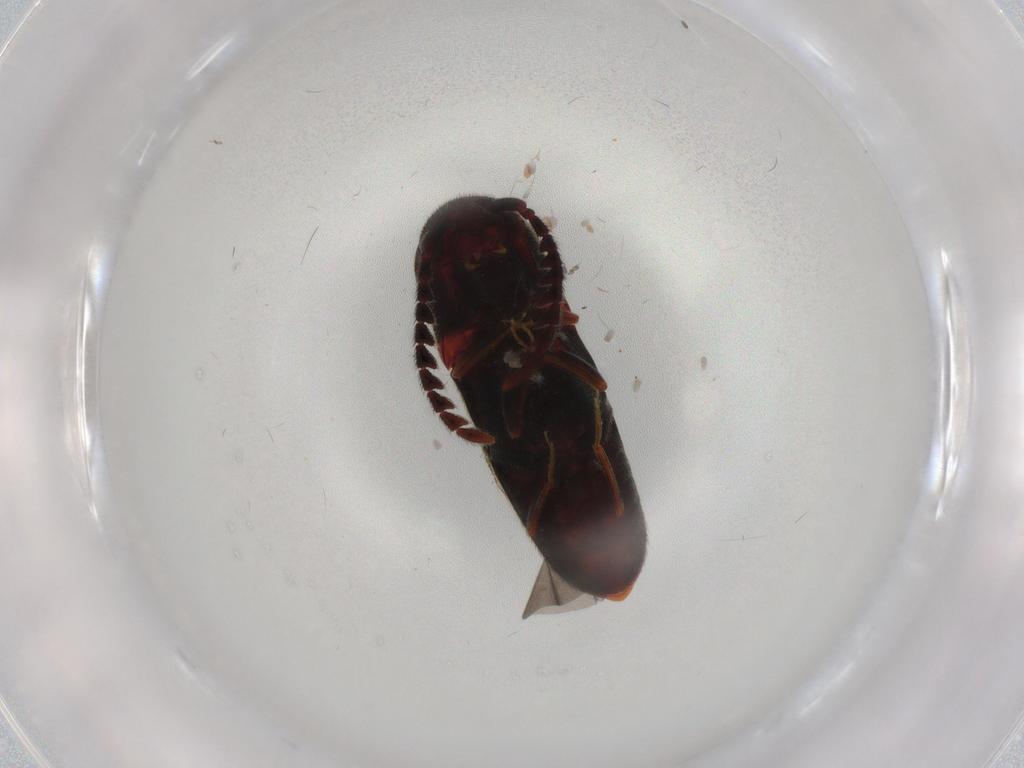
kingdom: Animalia
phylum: Arthropoda
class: Insecta
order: Coleoptera
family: Eucnemidae
